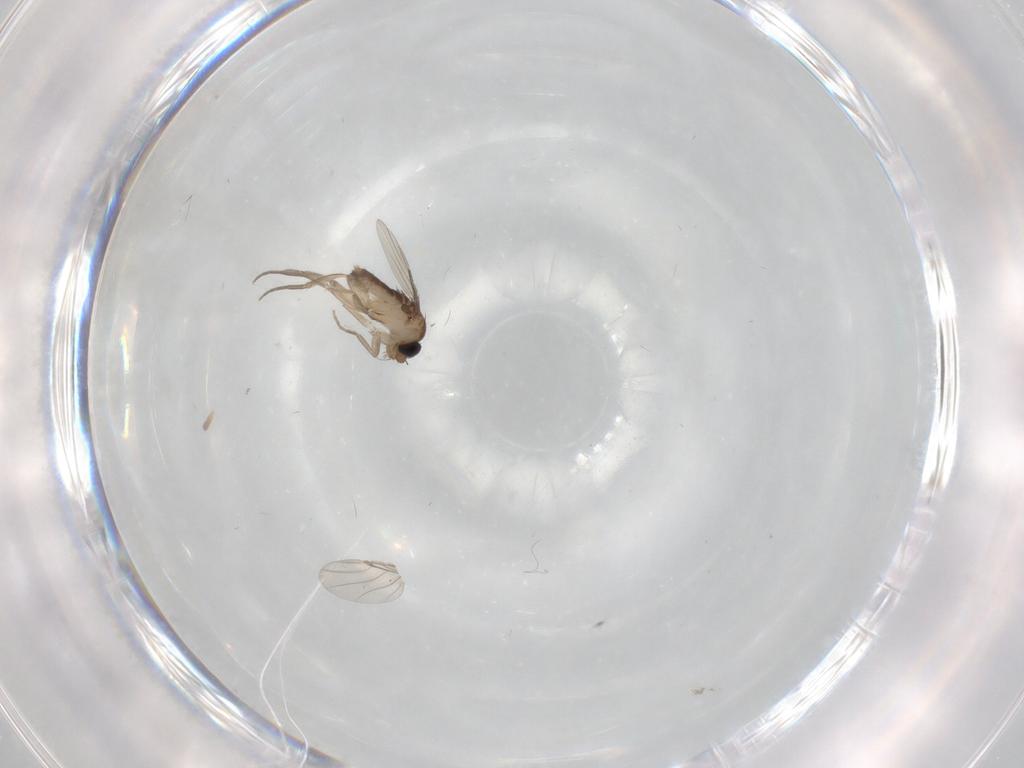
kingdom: Animalia
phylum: Arthropoda
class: Insecta
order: Diptera
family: Phoridae
